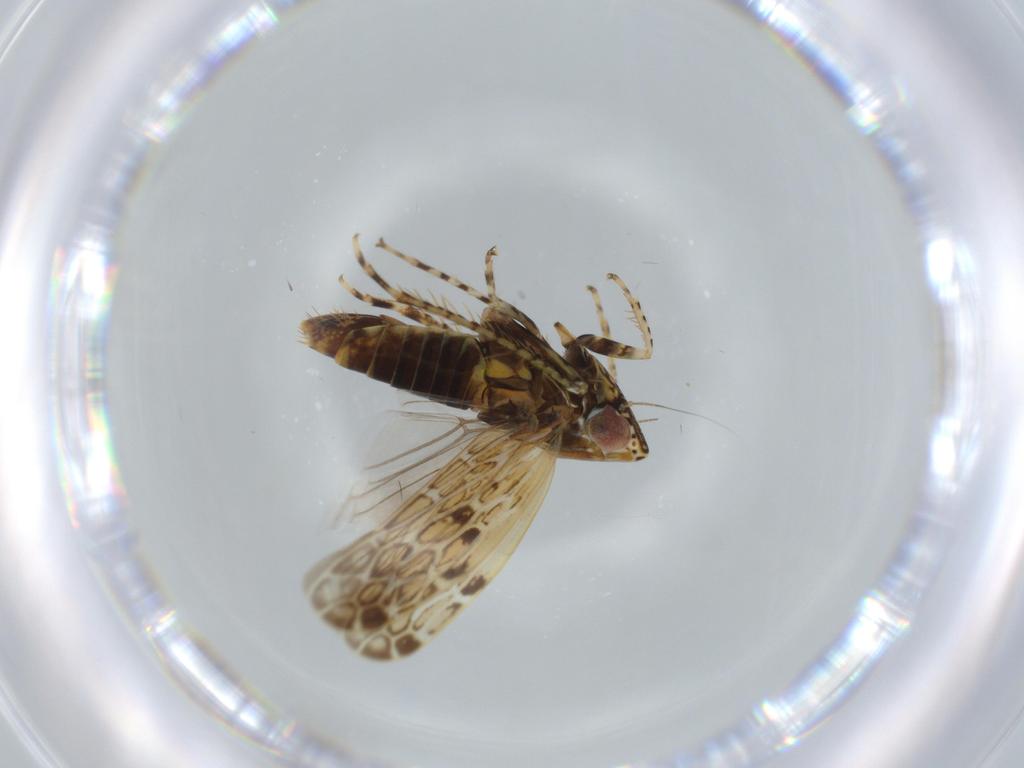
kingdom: Animalia
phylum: Arthropoda
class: Insecta
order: Hemiptera
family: Cicadellidae
